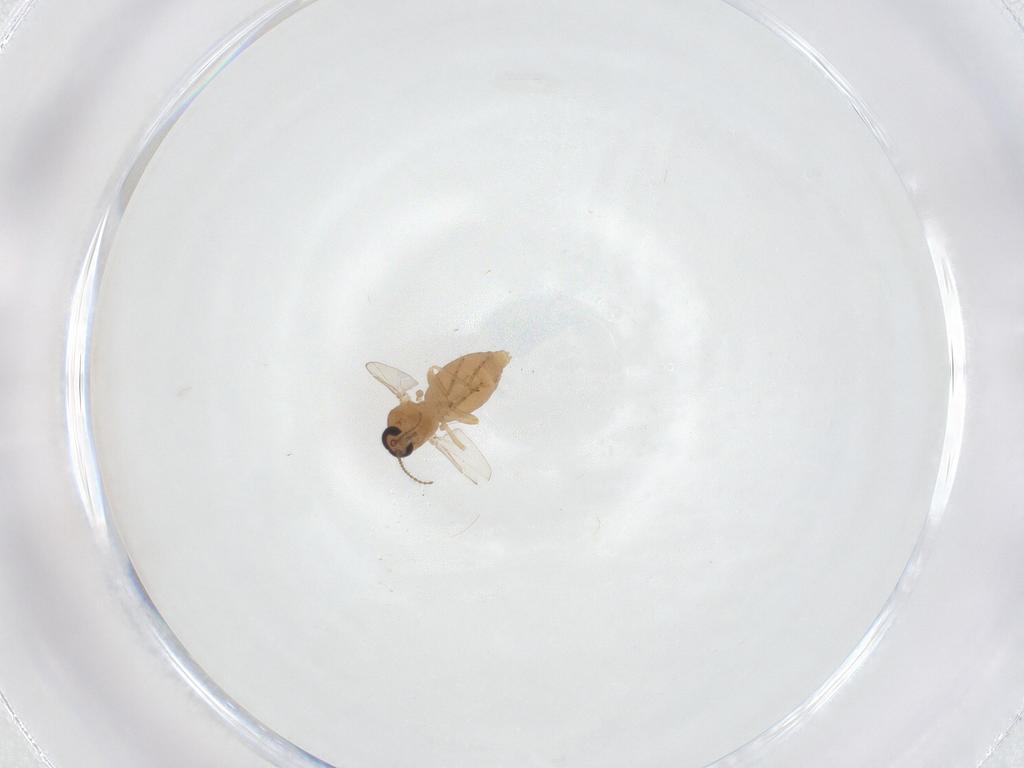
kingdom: Animalia
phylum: Arthropoda
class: Insecta
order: Diptera
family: Ceratopogonidae
